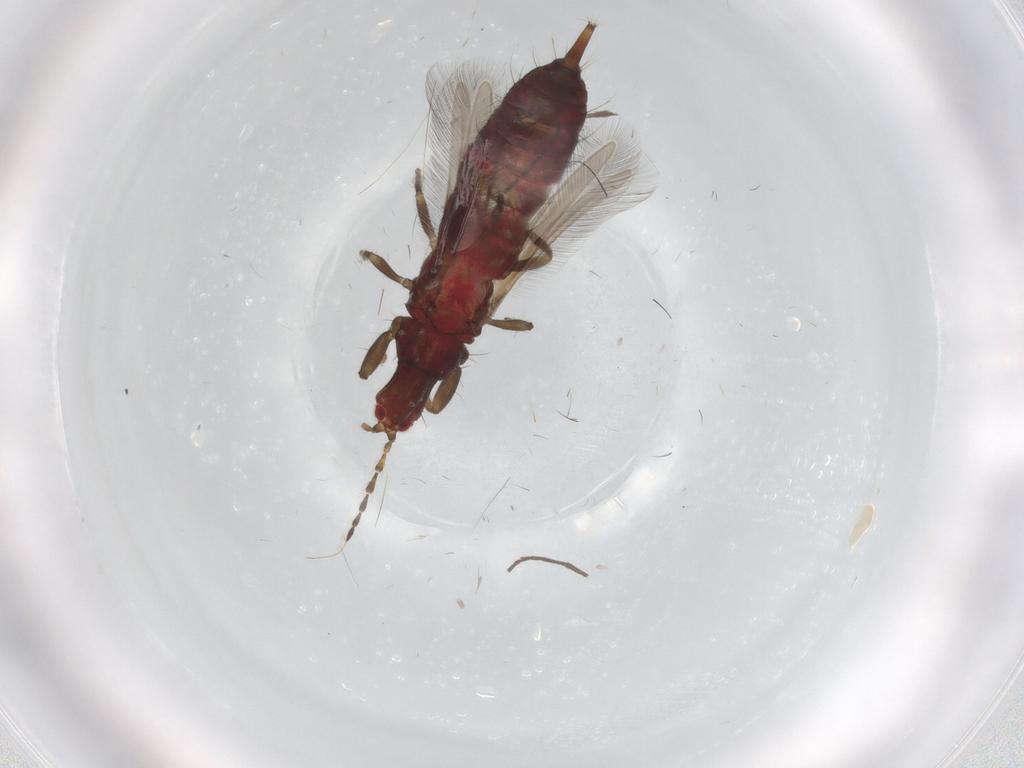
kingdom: Animalia
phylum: Arthropoda
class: Insecta
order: Thysanoptera
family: Phlaeothripidae
